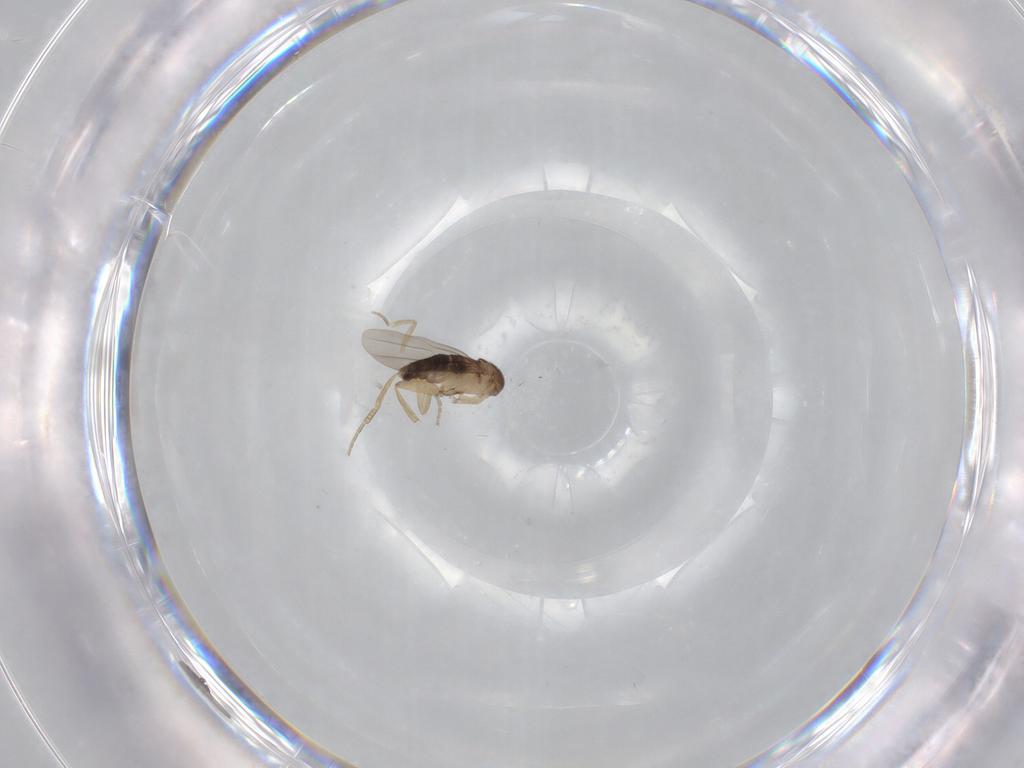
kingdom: Animalia
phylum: Arthropoda
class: Insecta
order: Diptera
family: Phoridae
